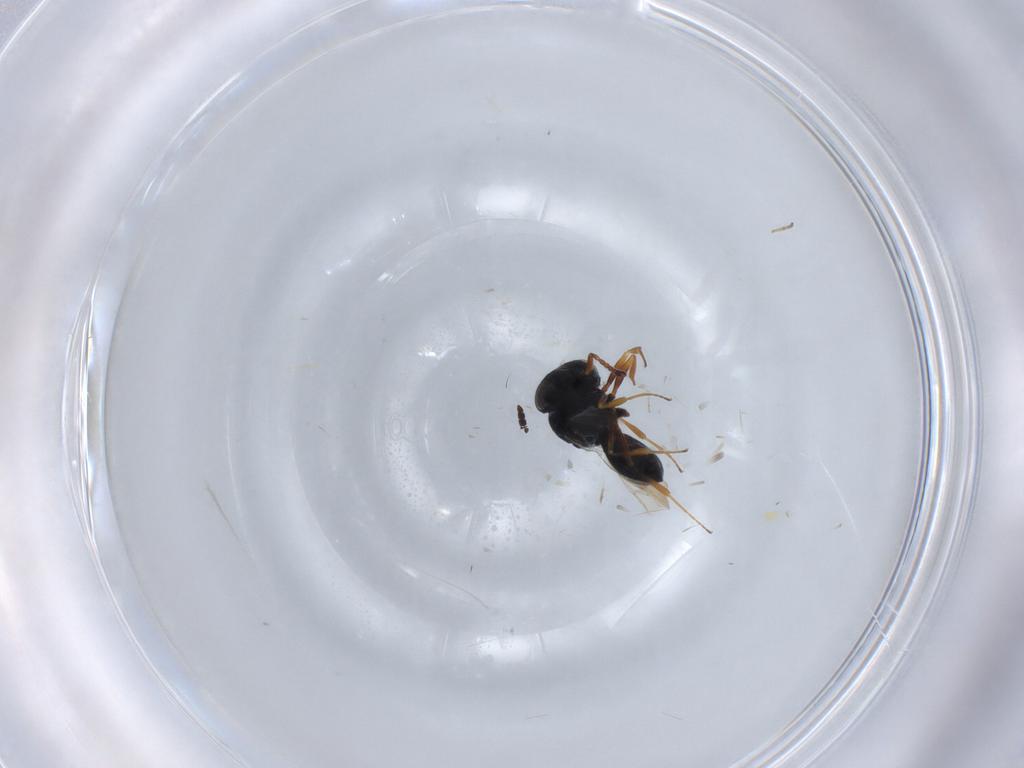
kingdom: Animalia
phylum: Arthropoda
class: Insecta
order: Hymenoptera
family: Scelionidae
